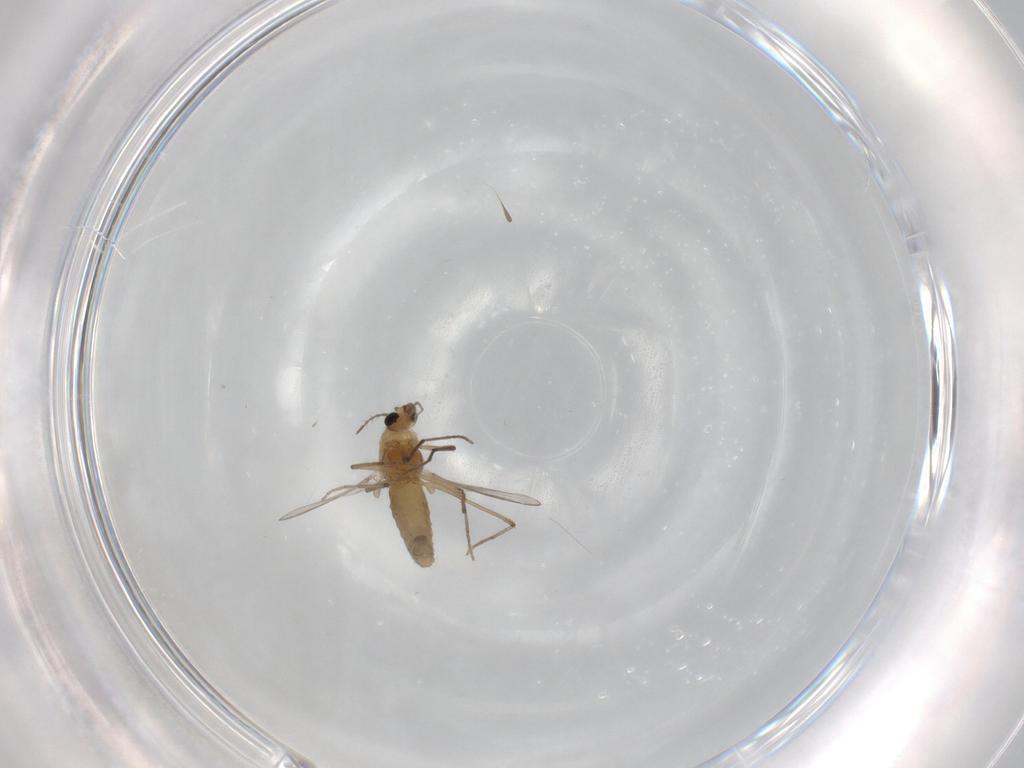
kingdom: Animalia
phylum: Arthropoda
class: Insecta
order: Diptera
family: Chironomidae
